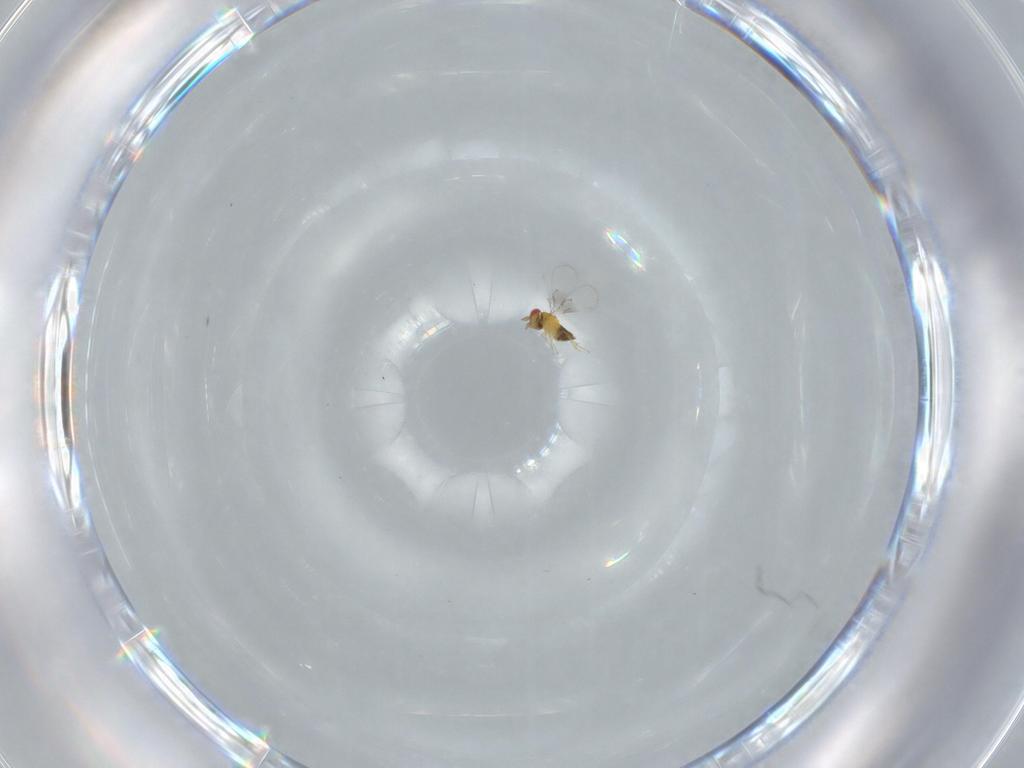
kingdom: Animalia
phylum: Arthropoda
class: Insecta
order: Hymenoptera
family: Trichogrammatidae
